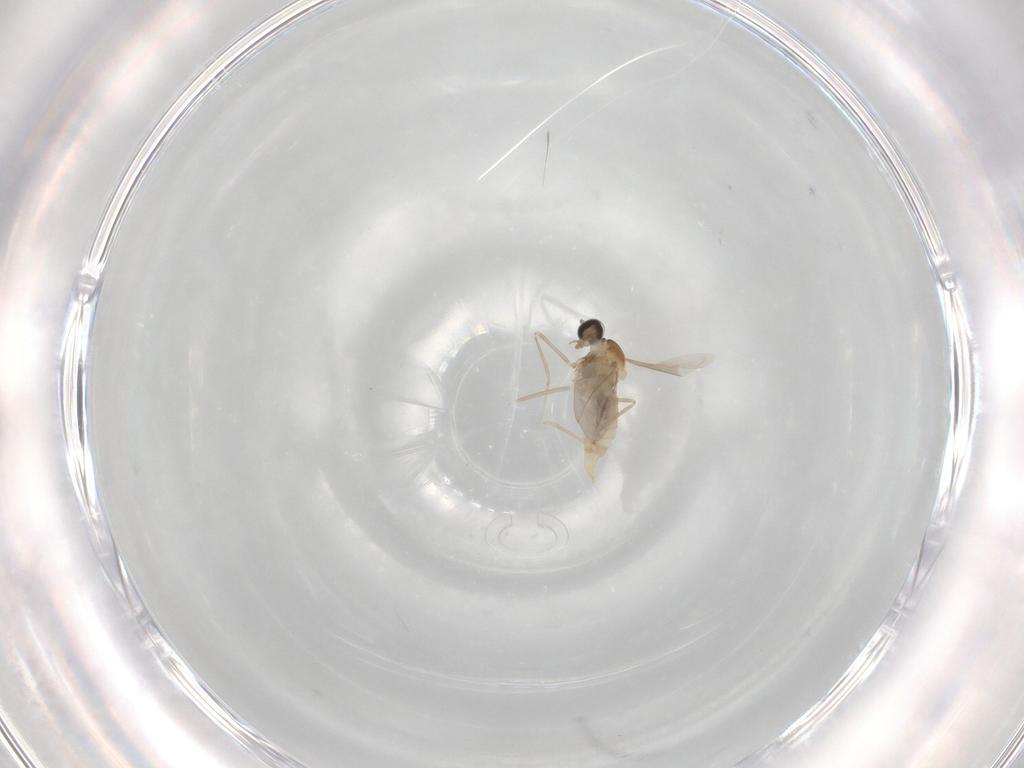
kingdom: Animalia
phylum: Arthropoda
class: Insecta
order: Diptera
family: Cecidomyiidae
